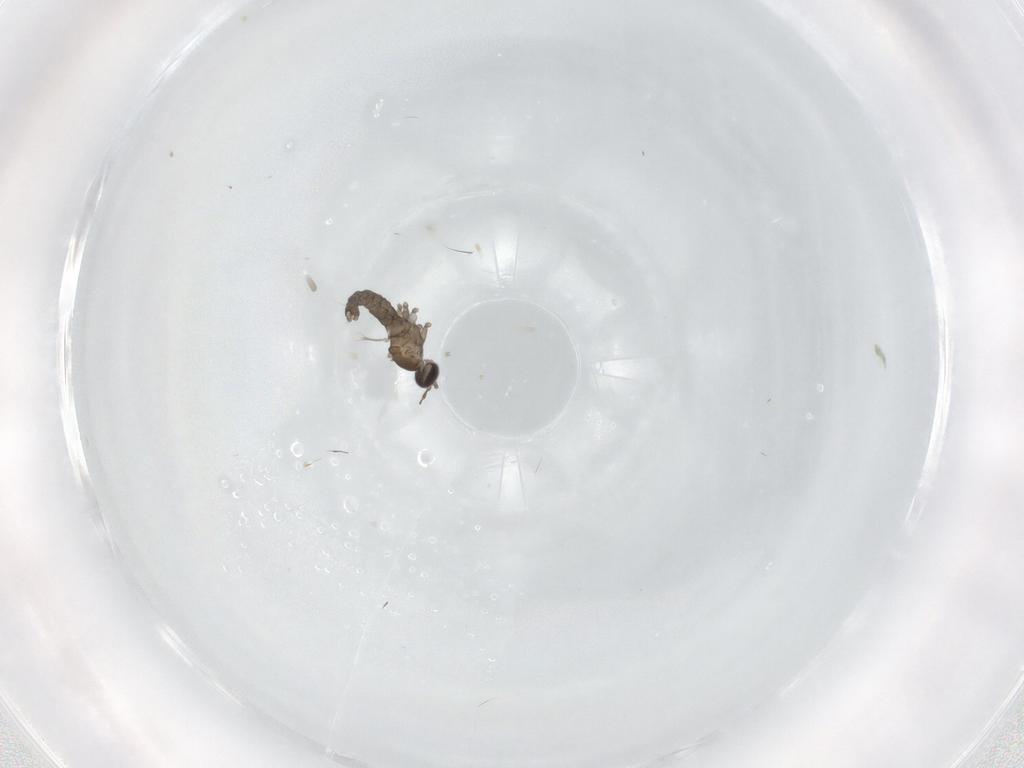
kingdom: Animalia
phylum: Arthropoda
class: Insecta
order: Diptera
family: Cecidomyiidae
